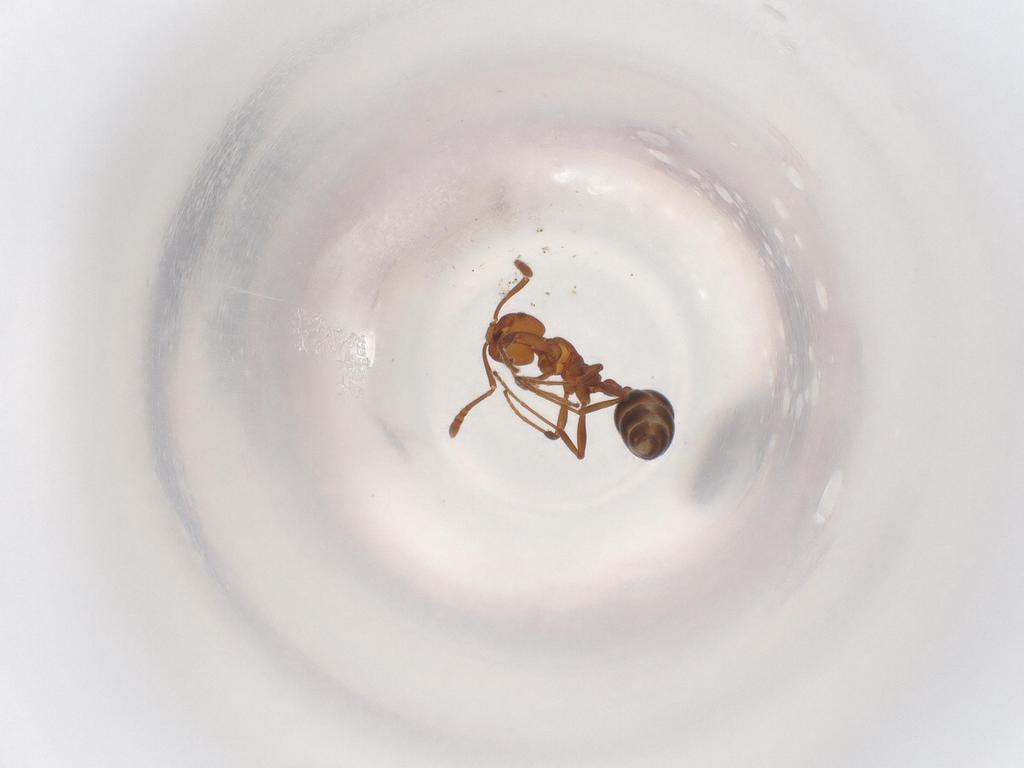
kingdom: Animalia
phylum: Arthropoda
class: Insecta
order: Hymenoptera
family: Formicidae
